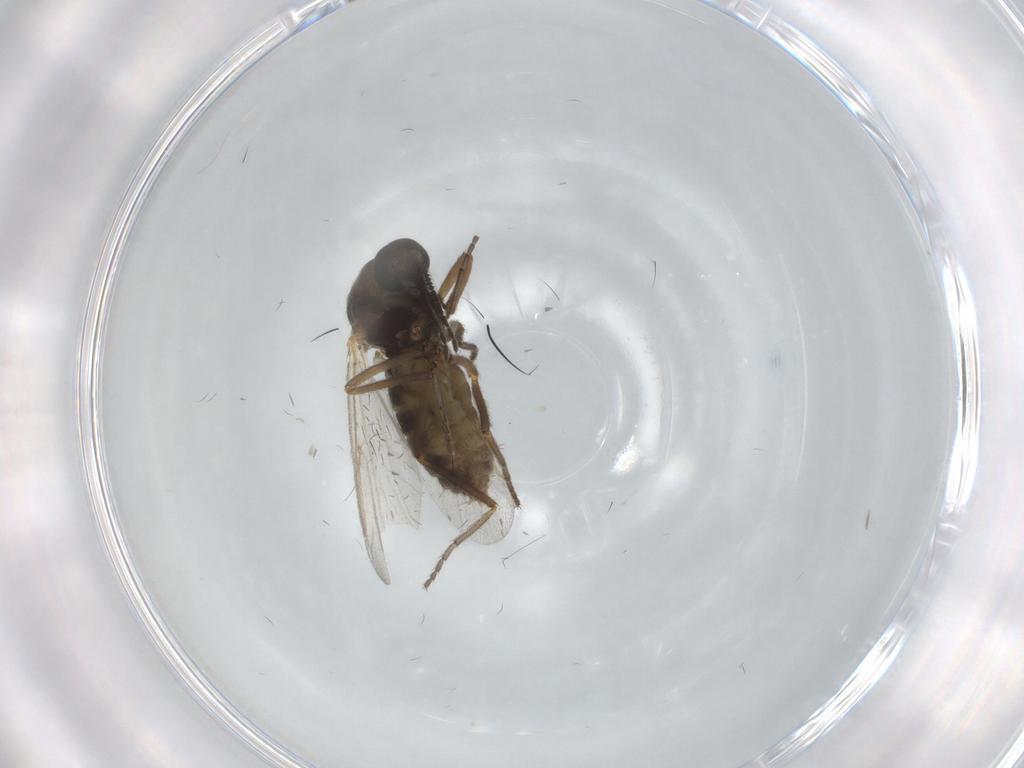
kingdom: Animalia
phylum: Arthropoda
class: Insecta
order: Diptera
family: Ceratopogonidae
